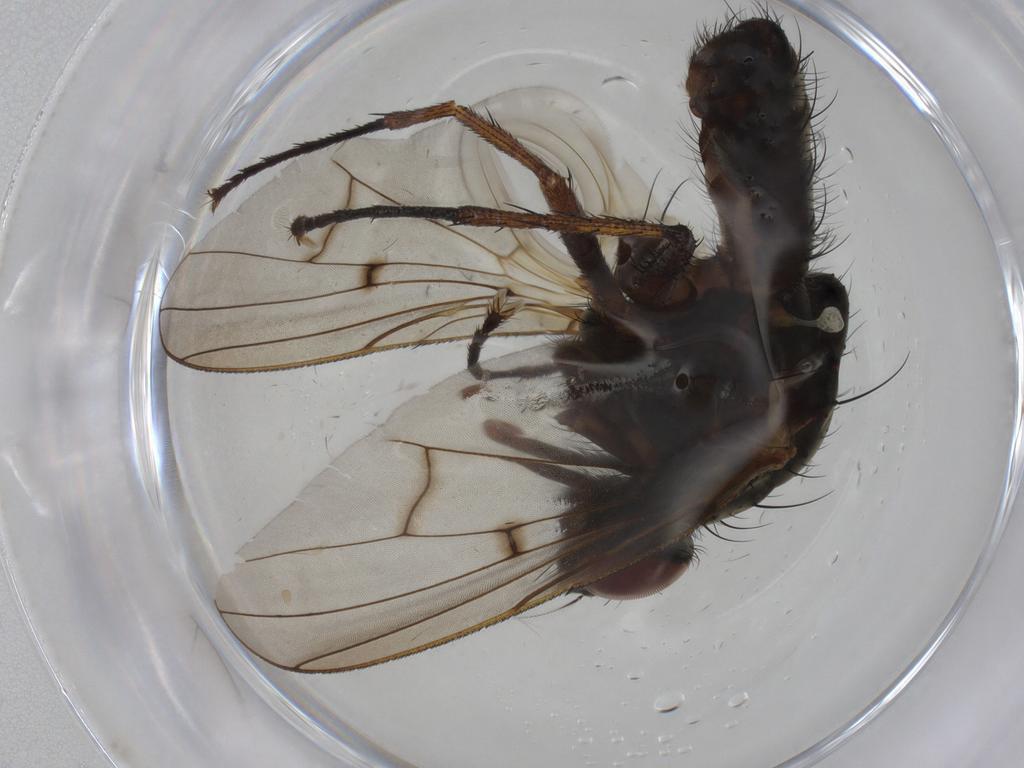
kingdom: Animalia
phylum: Arthropoda
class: Insecta
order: Diptera
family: Anthomyiidae
